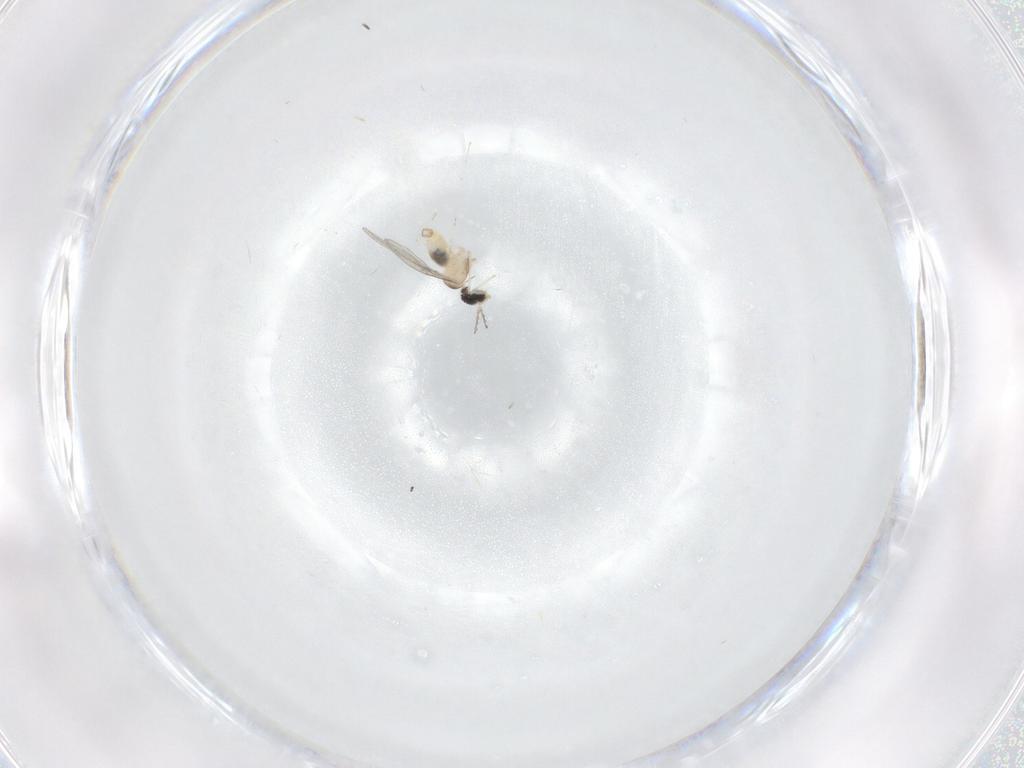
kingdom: Animalia
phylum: Arthropoda
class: Insecta
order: Diptera
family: Cecidomyiidae
